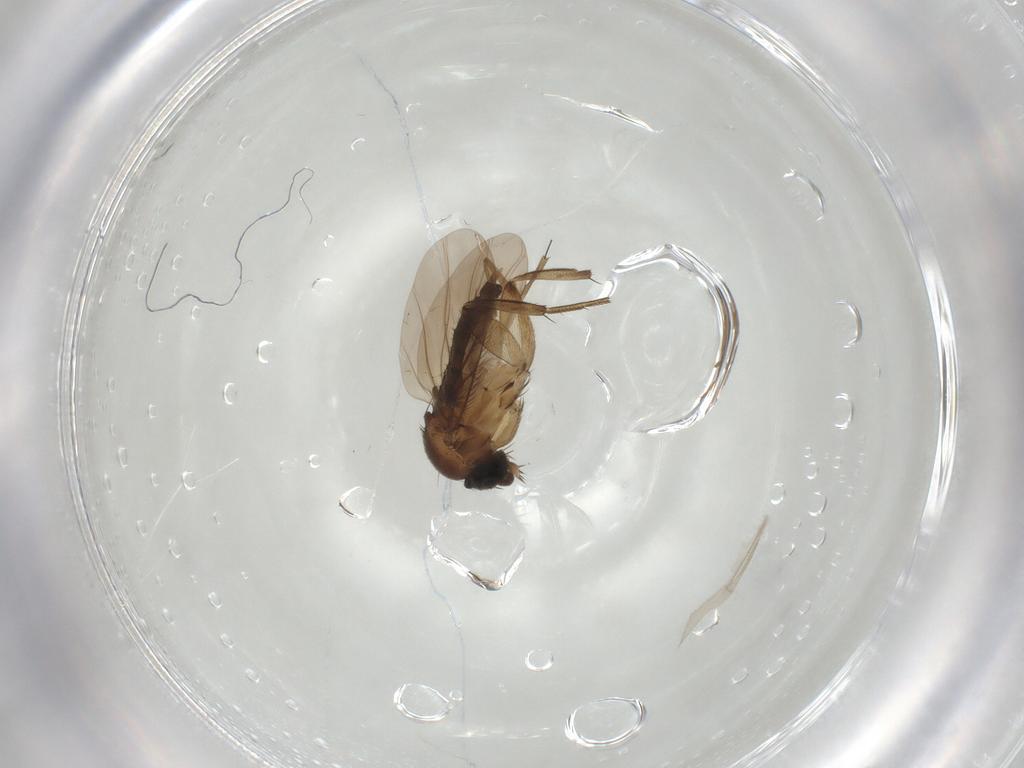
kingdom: Animalia
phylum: Arthropoda
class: Insecta
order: Diptera
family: Phoridae
